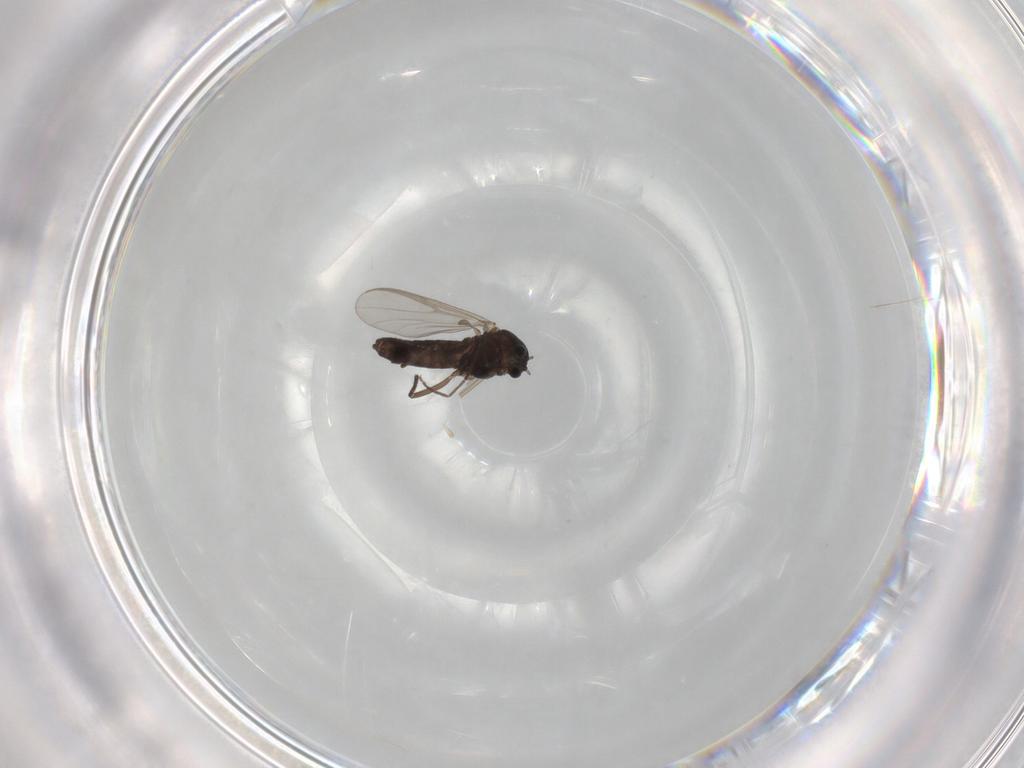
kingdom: Animalia
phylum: Arthropoda
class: Insecta
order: Diptera
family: Chironomidae
